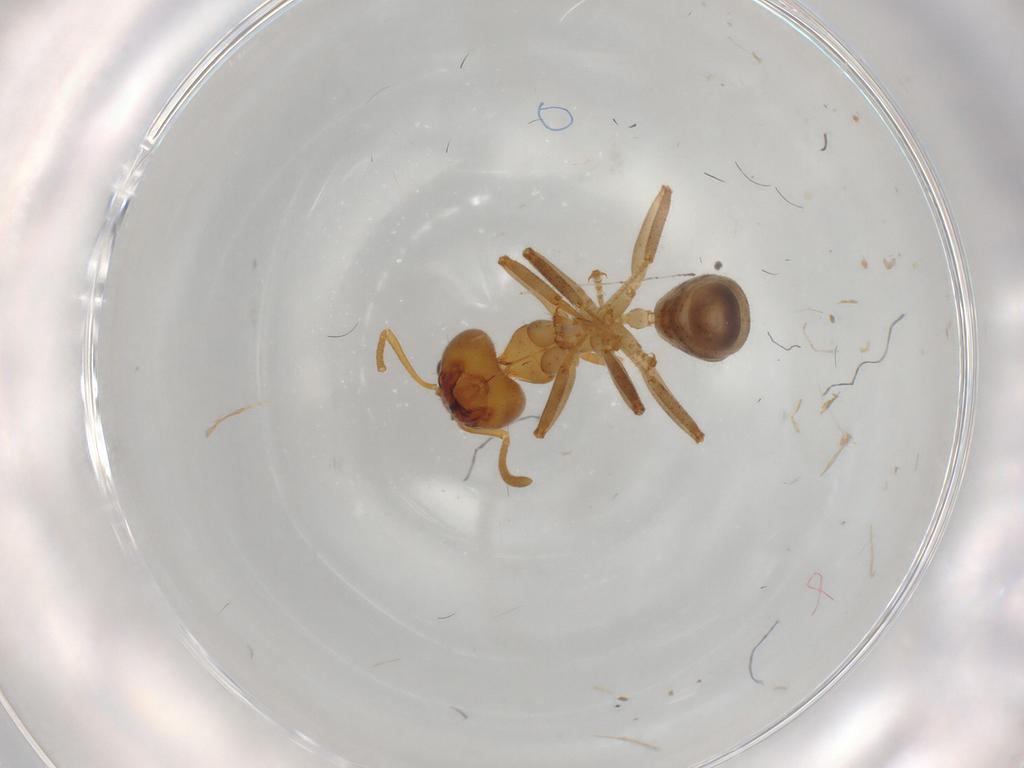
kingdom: Animalia
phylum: Arthropoda
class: Insecta
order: Hymenoptera
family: Formicidae
